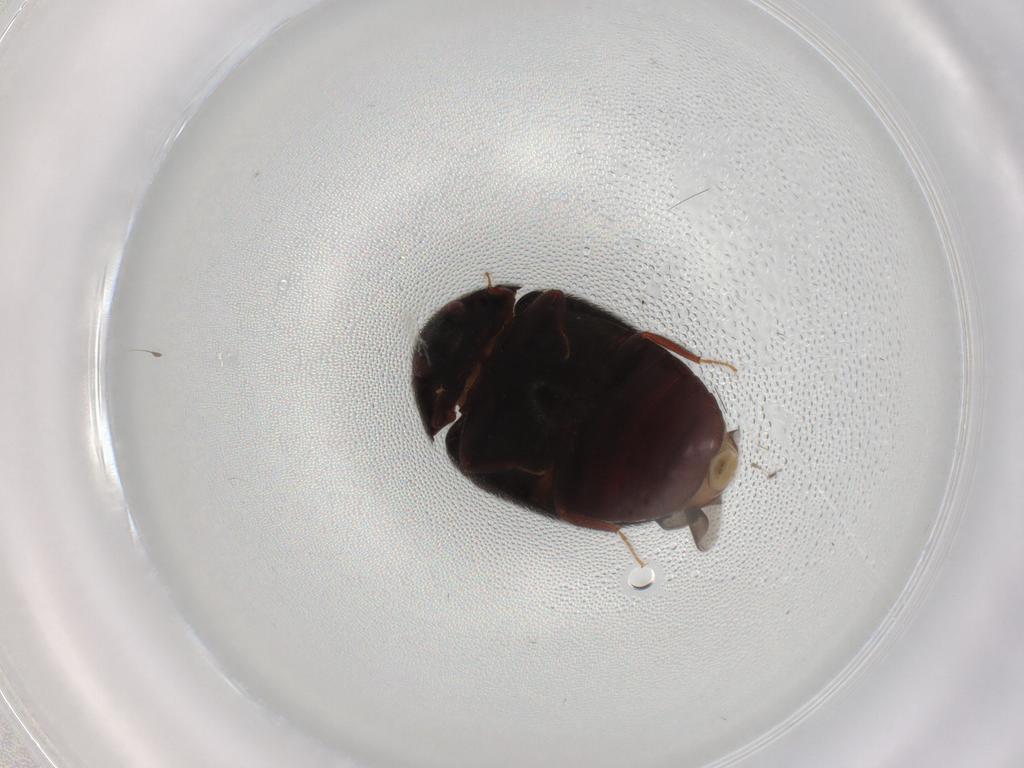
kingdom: Animalia
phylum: Arthropoda
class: Insecta
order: Coleoptera
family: Dermestidae
